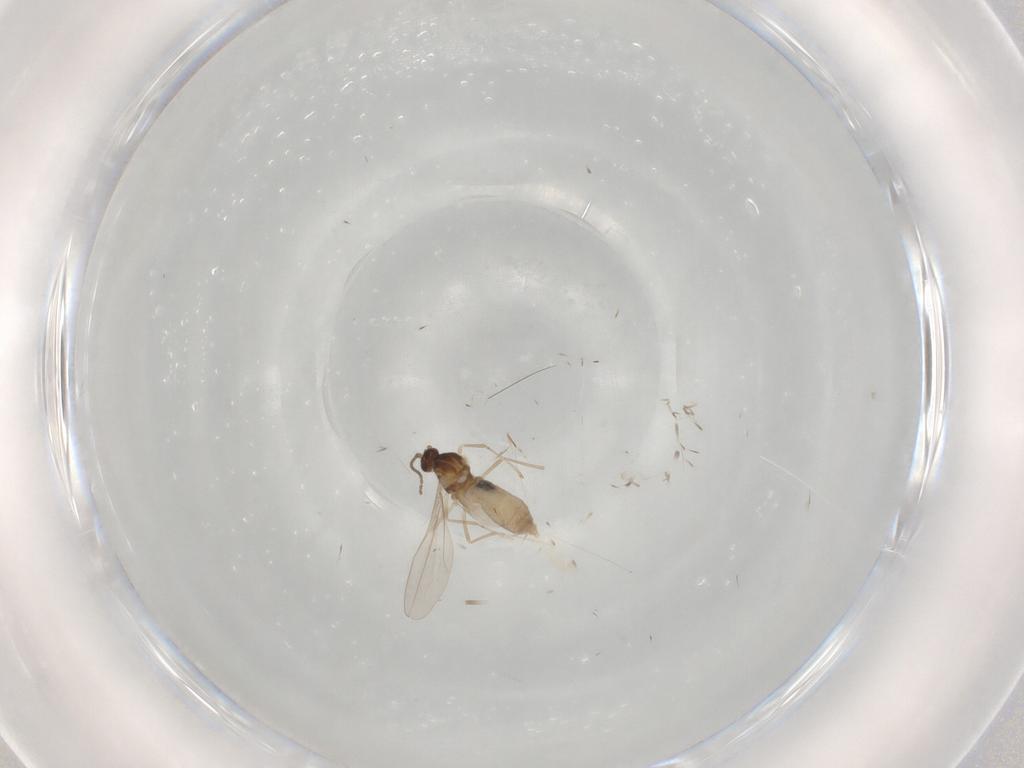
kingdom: Animalia
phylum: Arthropoda
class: Insecta
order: Diptera
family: Cecidomyiidae
